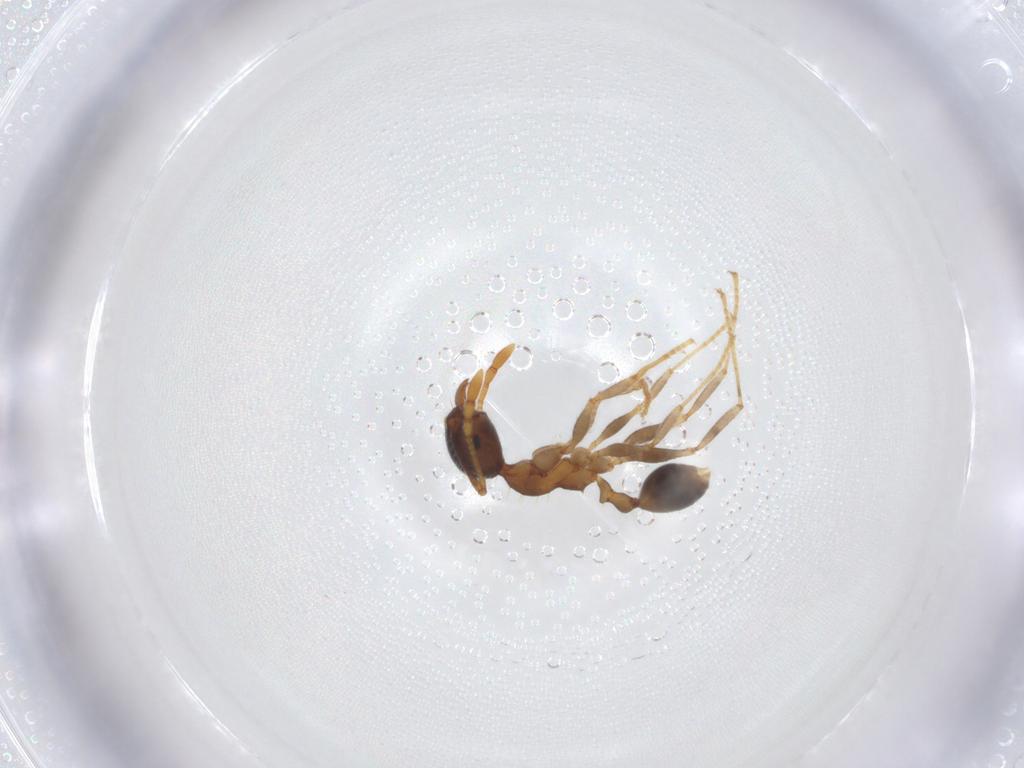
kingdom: Animalia
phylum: Arthropoda
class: Insecta
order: Hymenoptera
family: Formicidae
